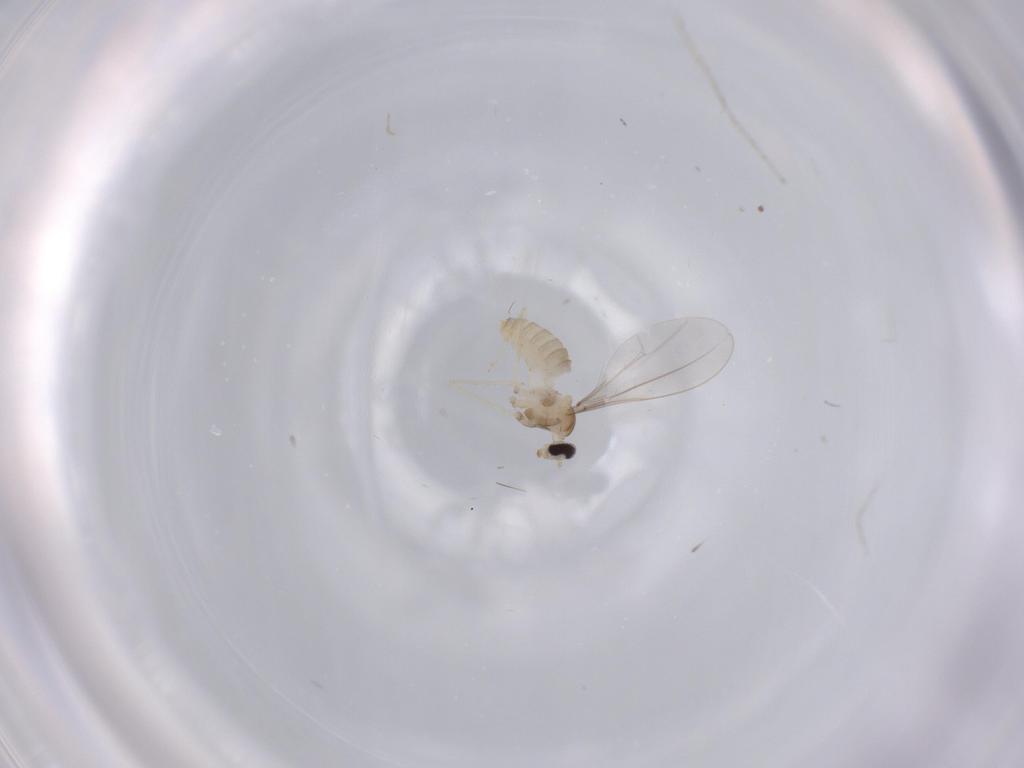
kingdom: Animalia
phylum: Arthropoda
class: Insecta
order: Diptera
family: Cecidomyiidae
